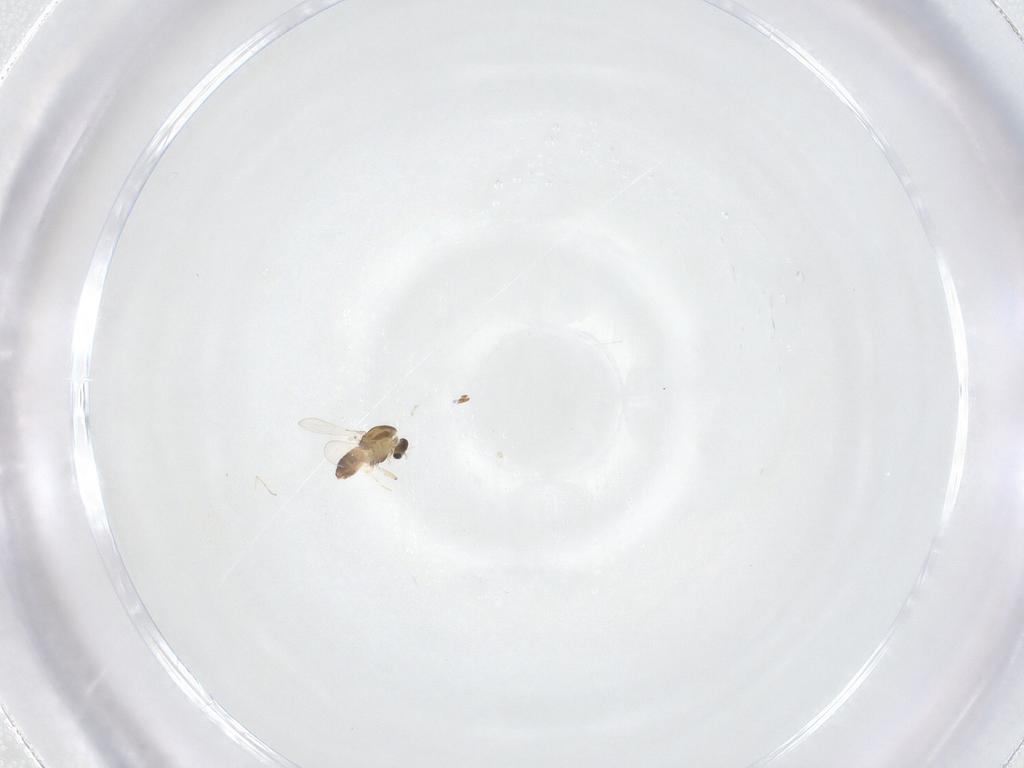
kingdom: Animalia
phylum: Arthropoda
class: Insecta
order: Diptera
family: Chironomidae
